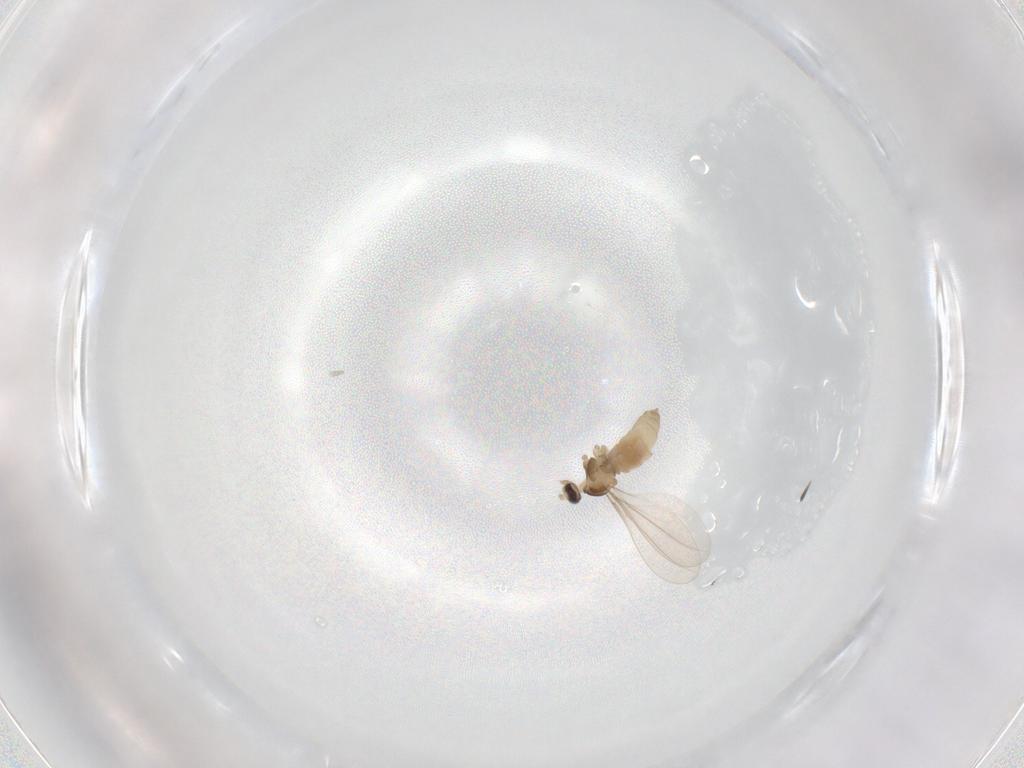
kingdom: Animalia
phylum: Arthropoda
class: Insecta
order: Diptera
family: Cecidomyiidae
